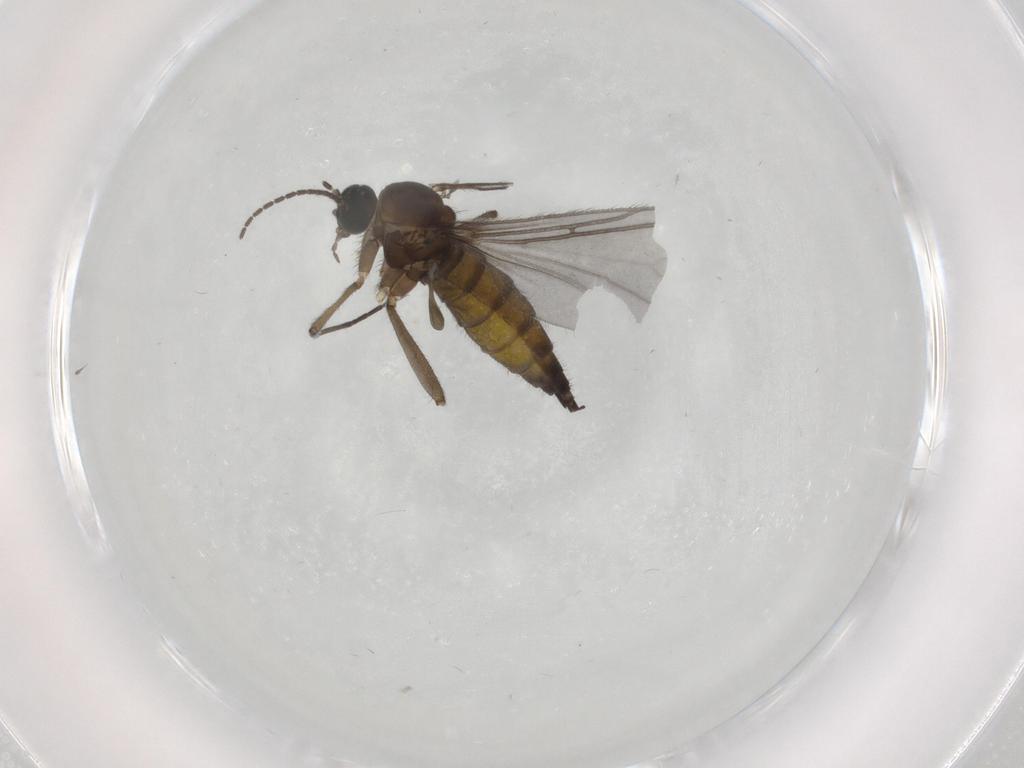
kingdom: Animalia
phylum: Arthropoda
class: Insecta
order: Diptera
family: Sciaridae
